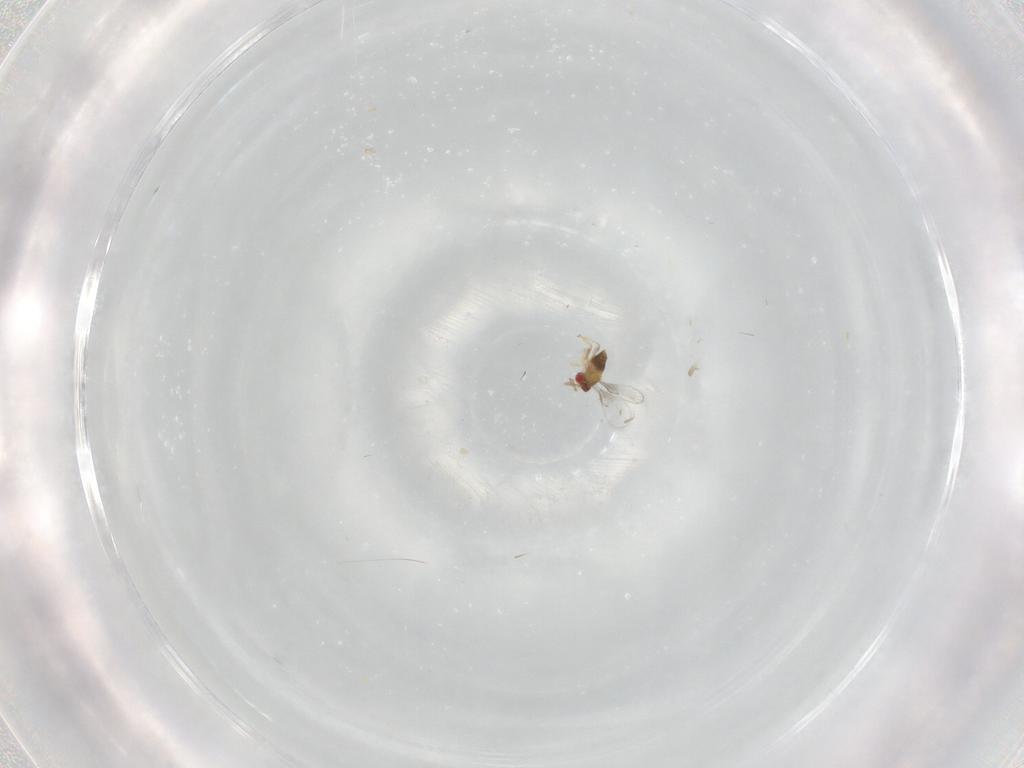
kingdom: Animalia
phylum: Arthropoda
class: Insecta
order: Hymenoptera
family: Trichogrammatidae
